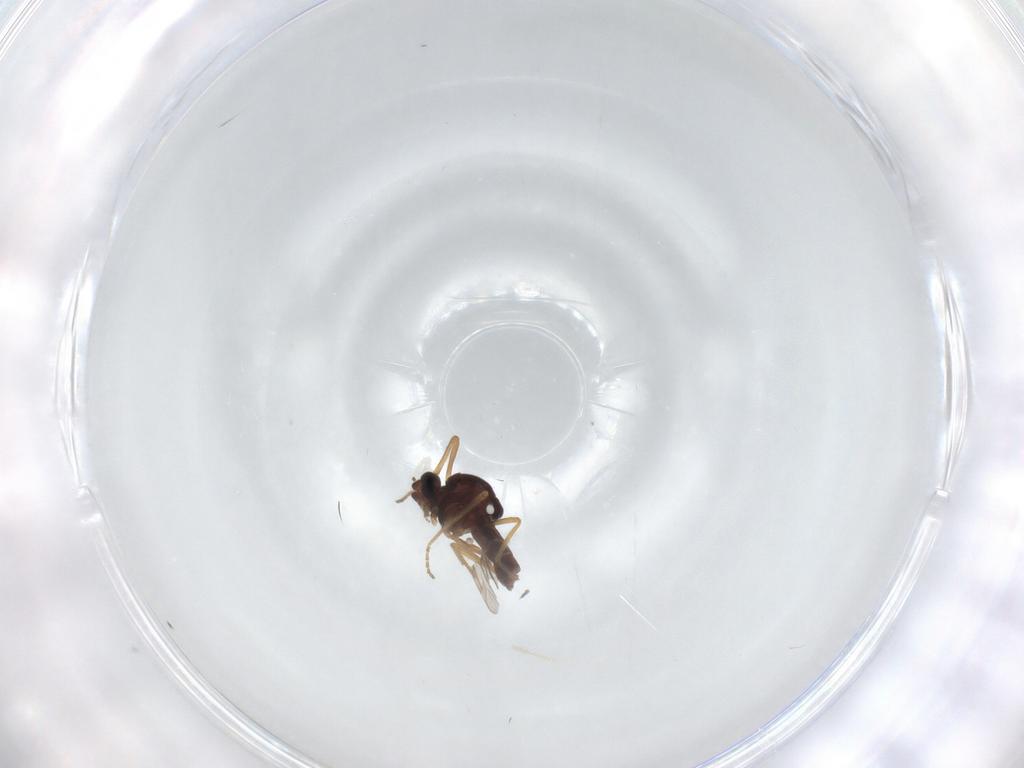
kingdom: Animalia
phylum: Arthropoda
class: Insecta
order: Diptera
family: Ceratopogonidae
